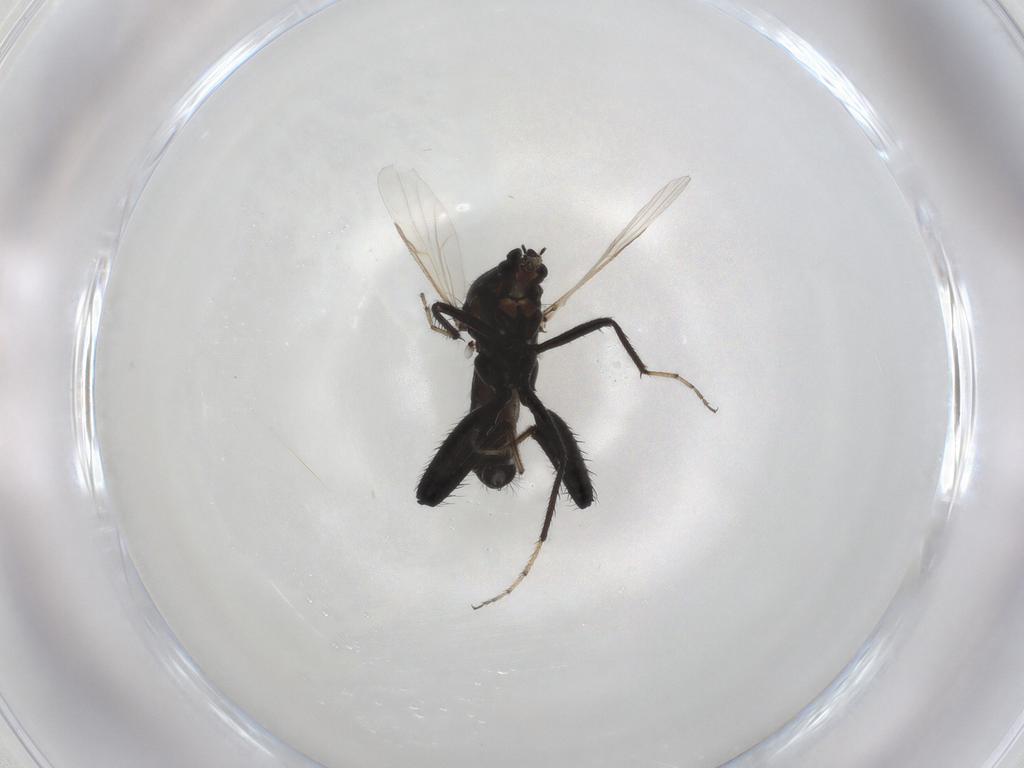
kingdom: Animalia
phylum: Arthropoda
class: Insecta
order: Diptera
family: Ceratopogonidae
